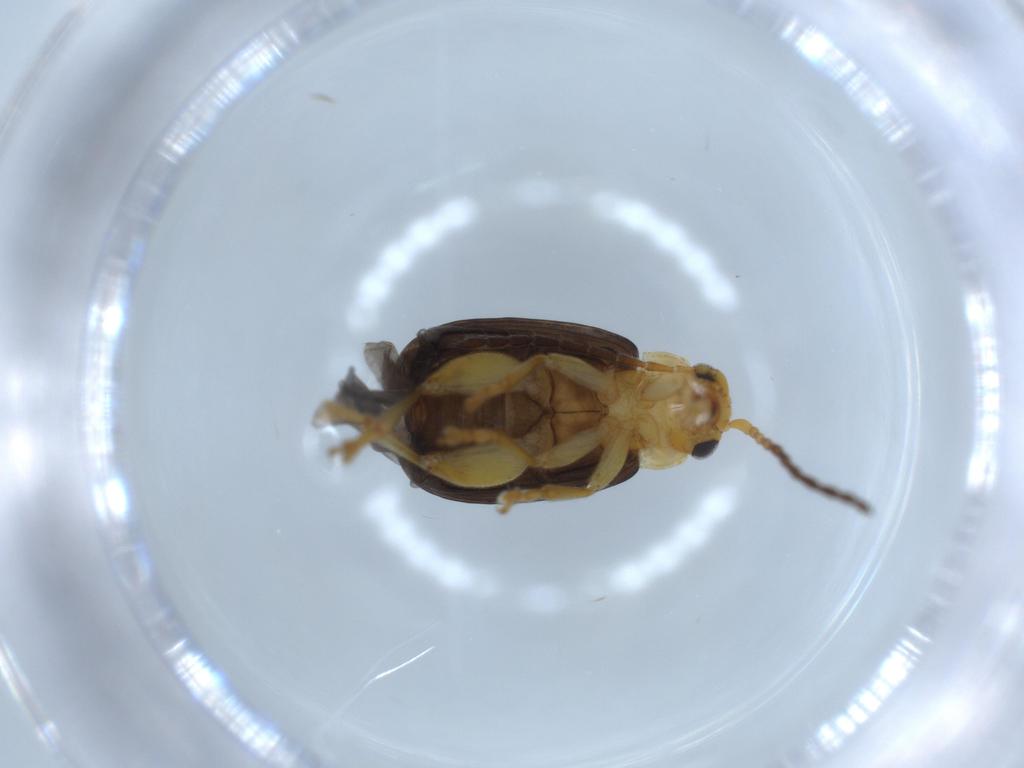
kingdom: Animalia
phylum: Arthropoda
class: Insecta
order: Coleoptera
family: Chrysomelidae
